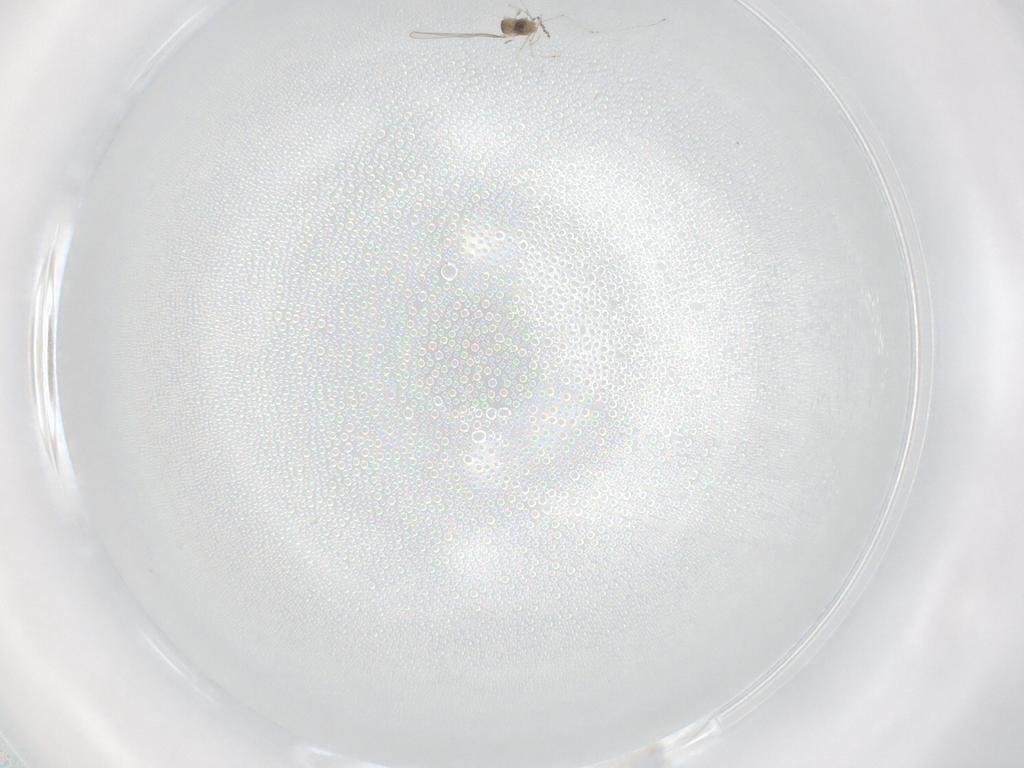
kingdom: Animalia
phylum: Arthropoda
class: Insecta
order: Diptera
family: Cecidomyiidae
